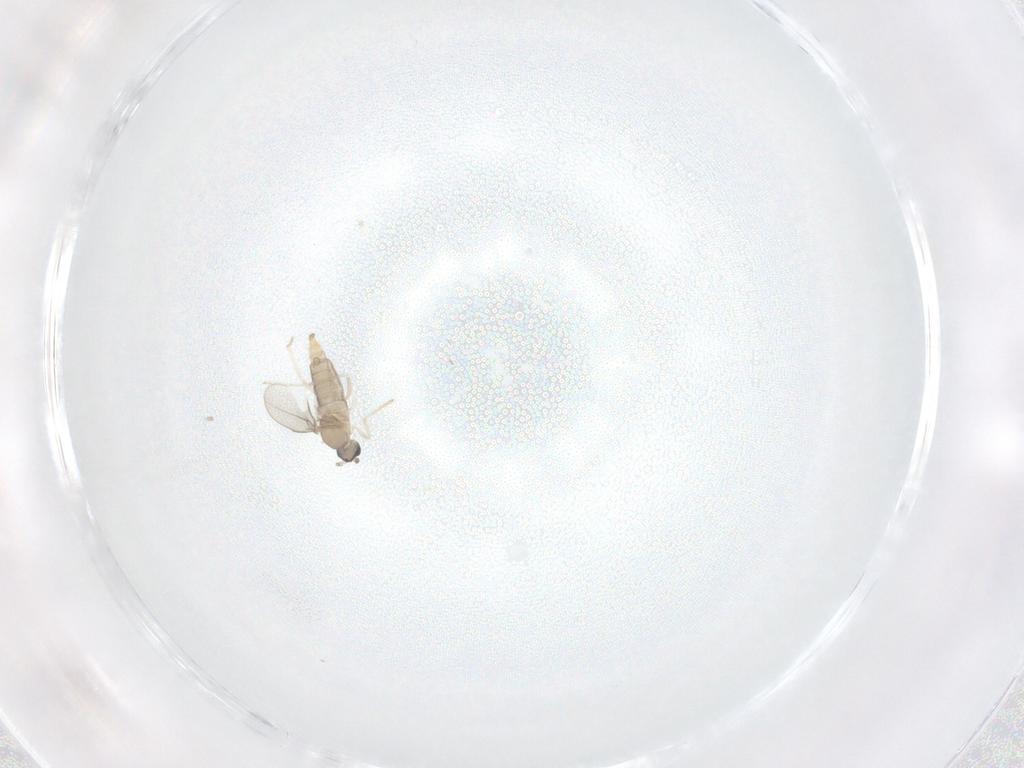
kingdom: Animalia
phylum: Arthropoda
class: Insecta
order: Diptera
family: Cecidomyiidae
